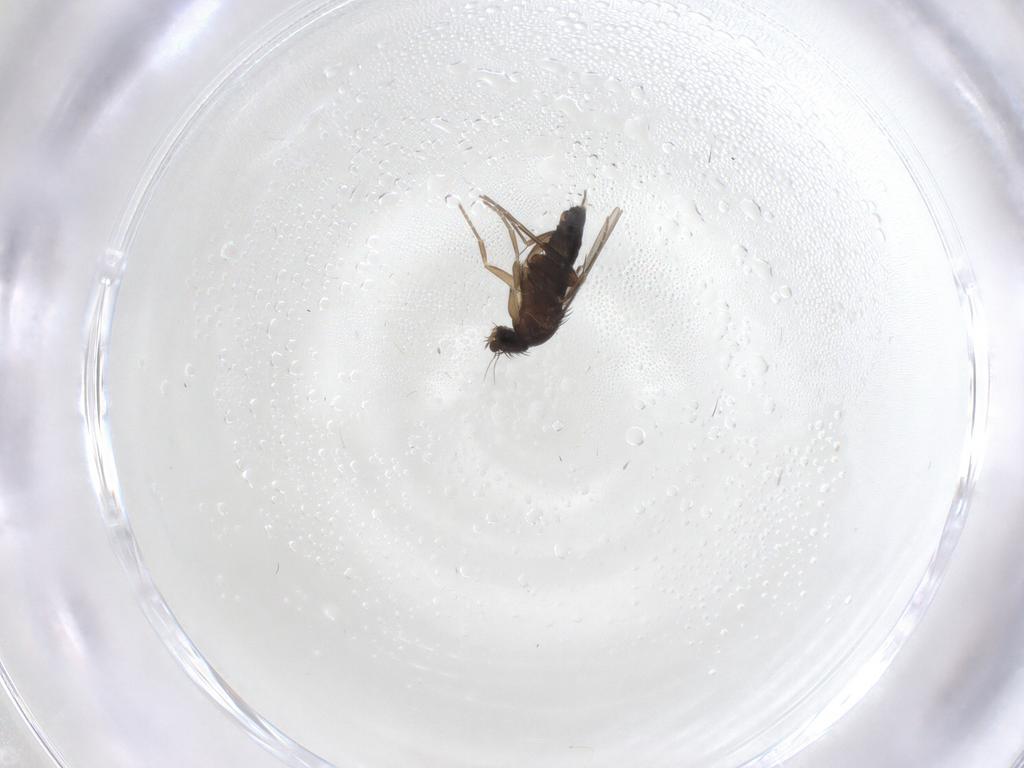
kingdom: Animalia
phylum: Arthropoda
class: Insecta
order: Diptera
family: Phoridae
